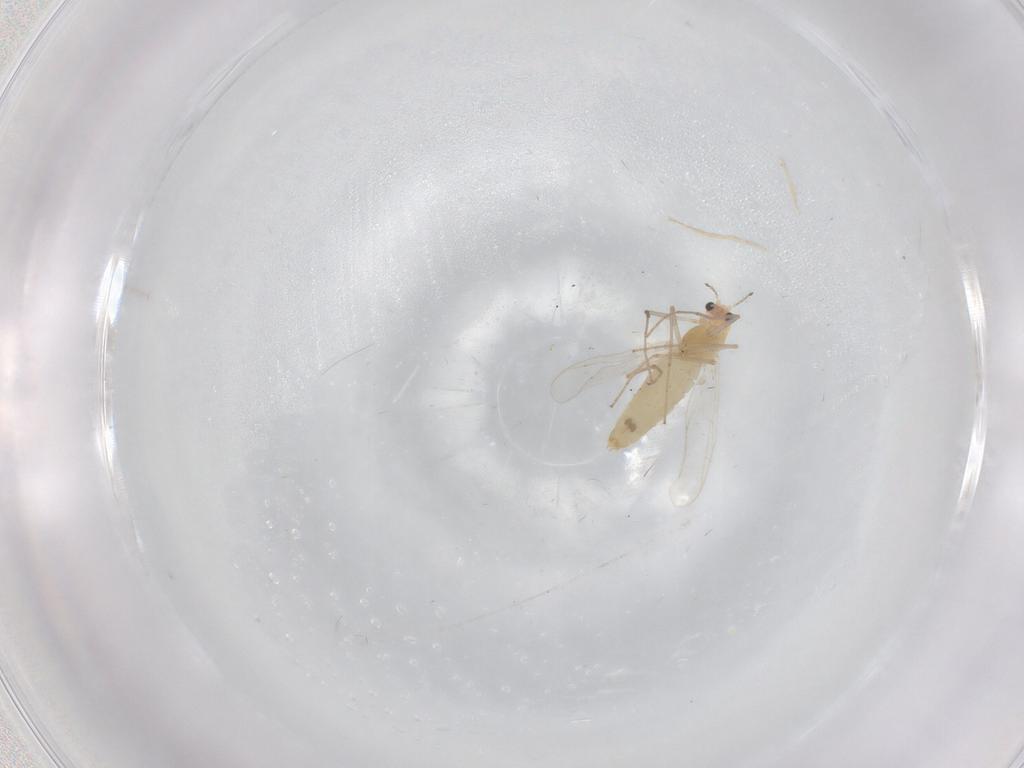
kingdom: Animalia
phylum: Arthropoda
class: Insecta
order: Diptera
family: Chironomidae
